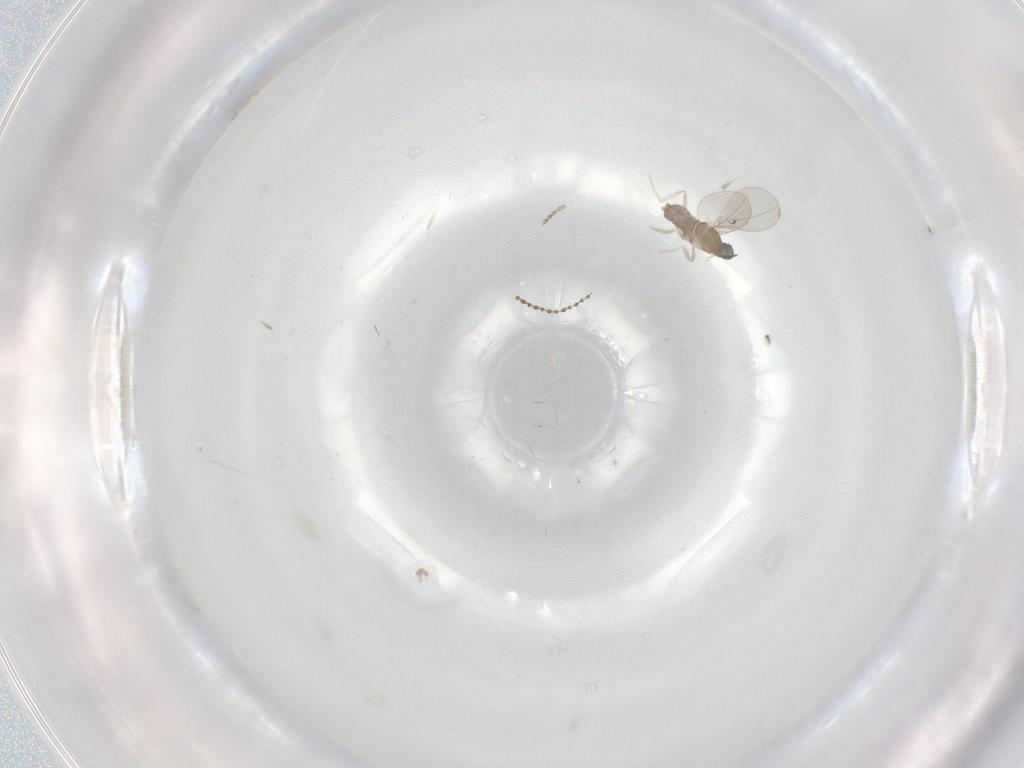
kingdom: Animalia
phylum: Arthropoda
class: Insecta
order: Diptera
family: Cecidomyiidae
